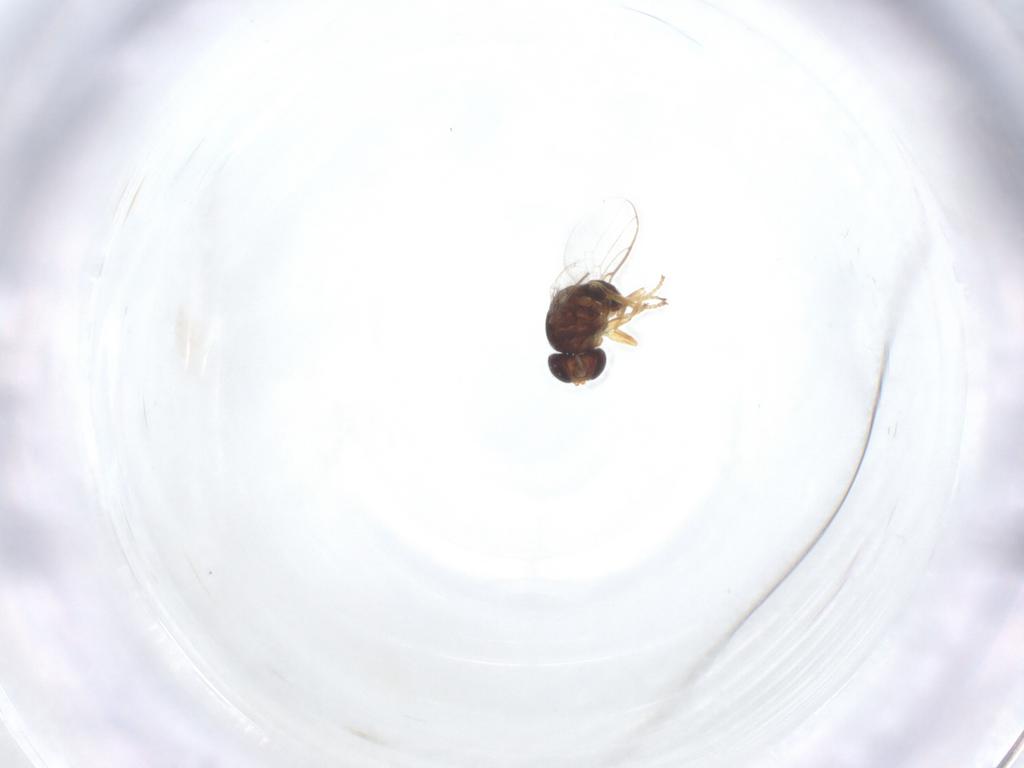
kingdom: Animalia
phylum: Arthropoda
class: Insecta
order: Diptera
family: Chloropidae
